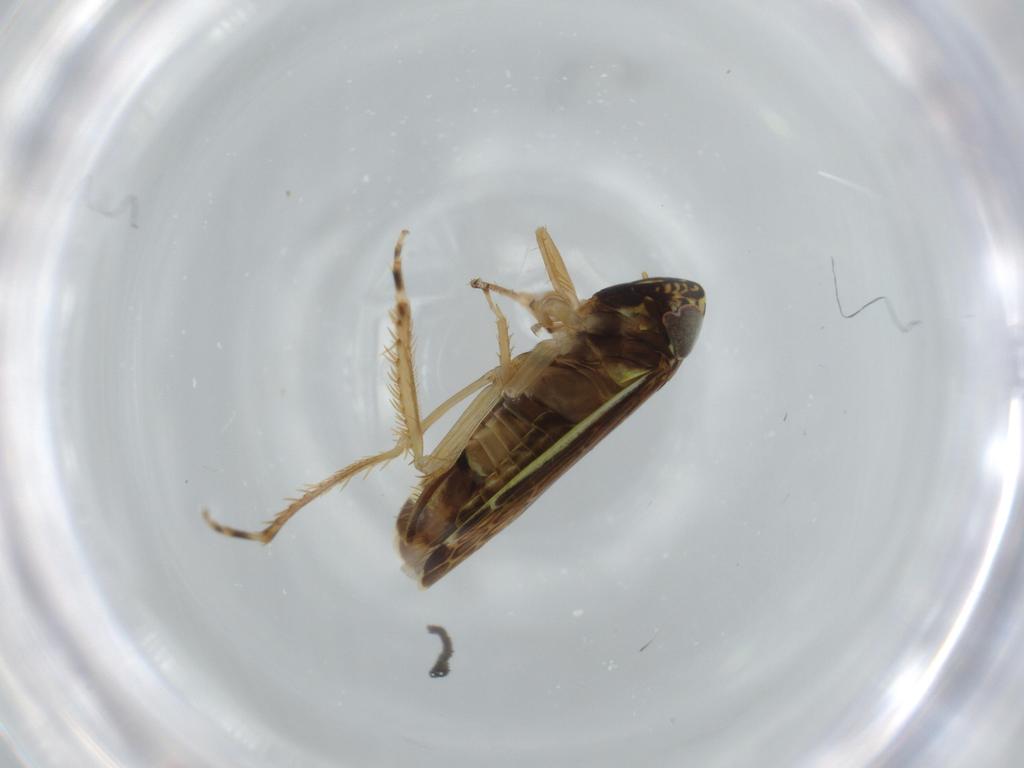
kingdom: Animalia
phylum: Arthropoda
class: Insecta
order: Hemiptera
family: Cicadellidae
